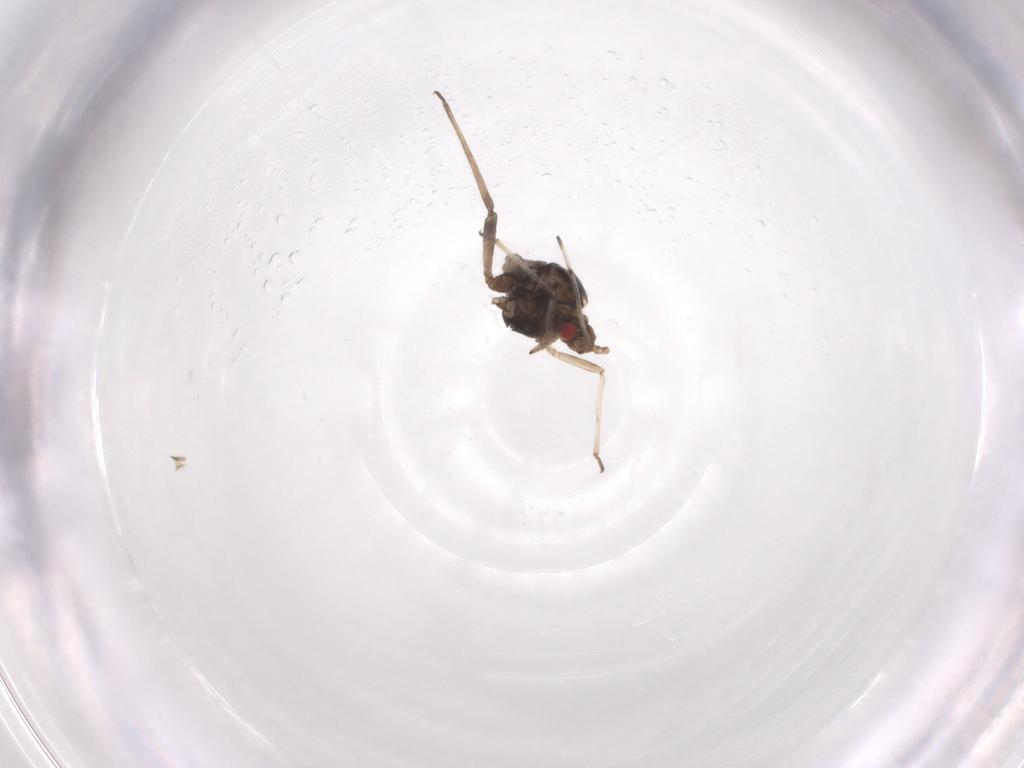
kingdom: Animalia
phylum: Arthropoda
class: Insecta
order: Hemiptera
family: Aphididae
